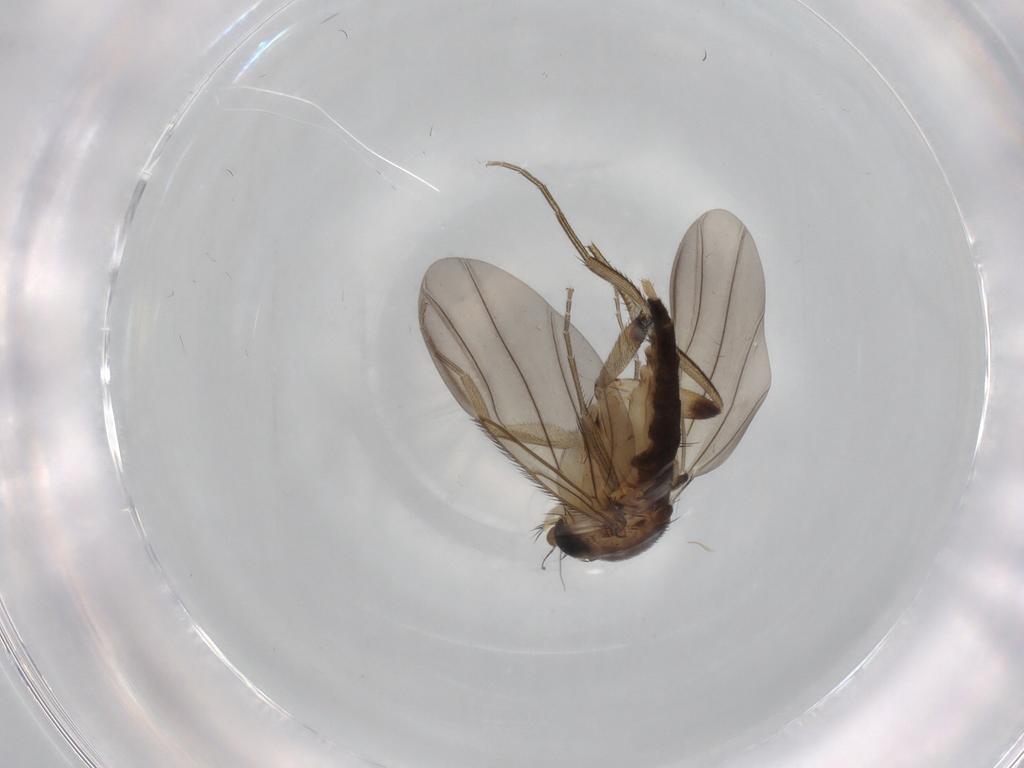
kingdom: Animalia
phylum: Arthropoda
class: Insecta
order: Diptera
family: Phoridae
